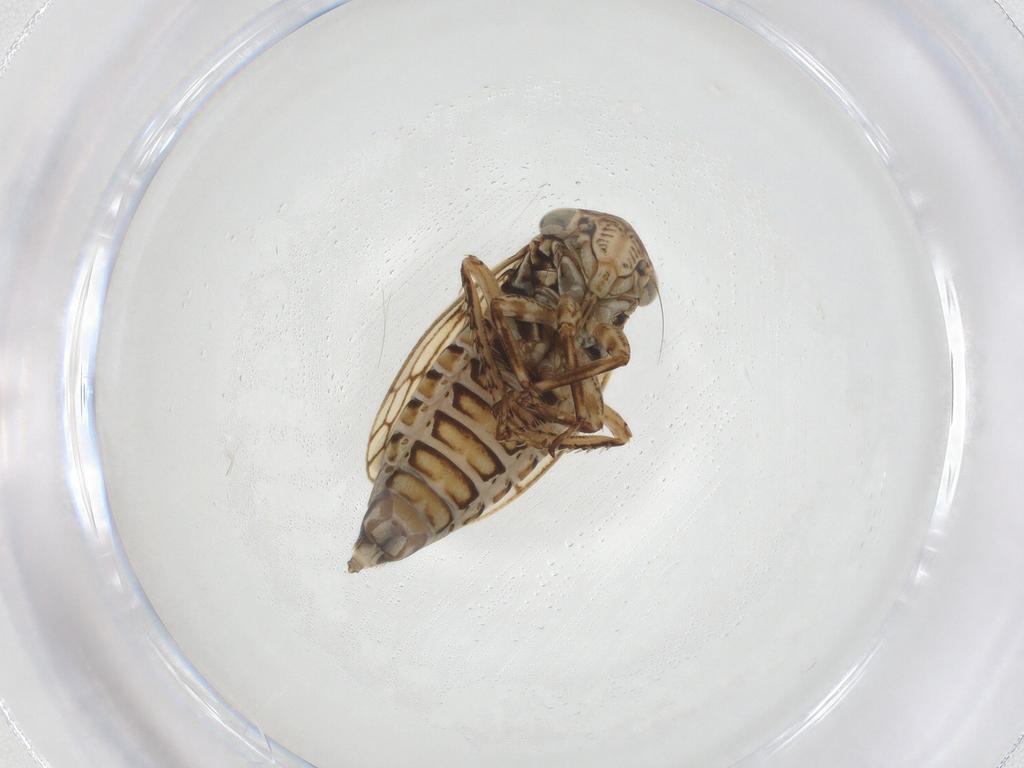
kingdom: Animalia
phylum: Arthropoda
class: Insecta
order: Hemiptera
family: Cicadellidae
